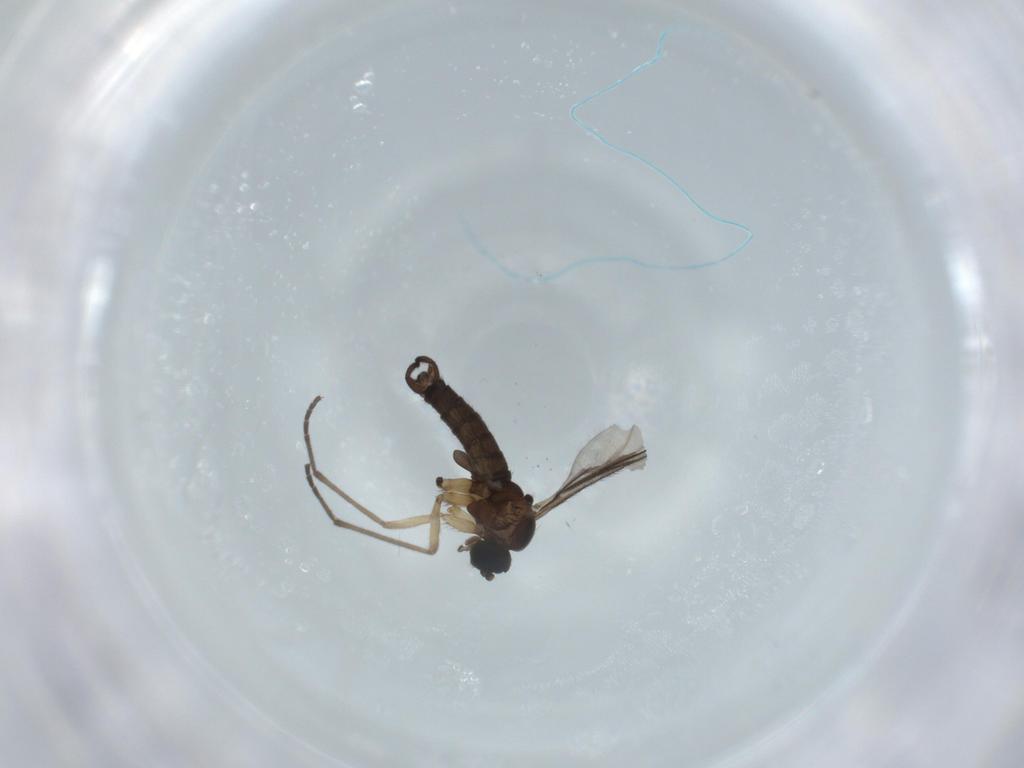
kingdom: Animalia
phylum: Arthropoda
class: Insecta
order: Diptera
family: Sciaridae
